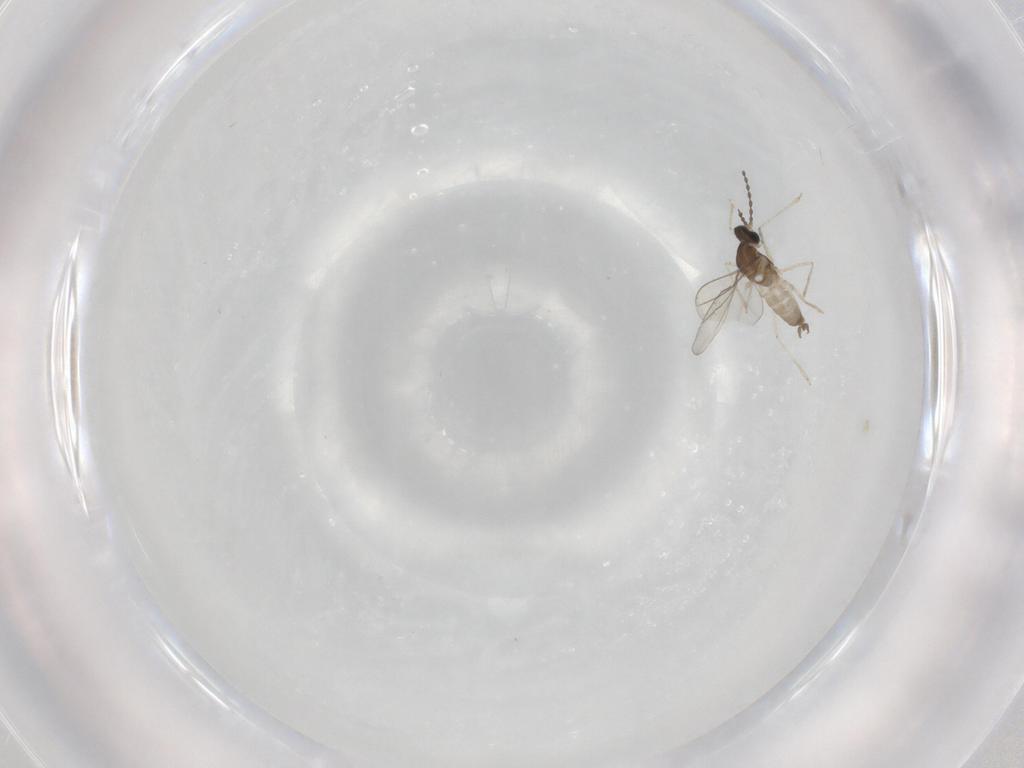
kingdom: Animalia
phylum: Arthropoda
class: Insecta
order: Diptera
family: Cecidomyiidae
